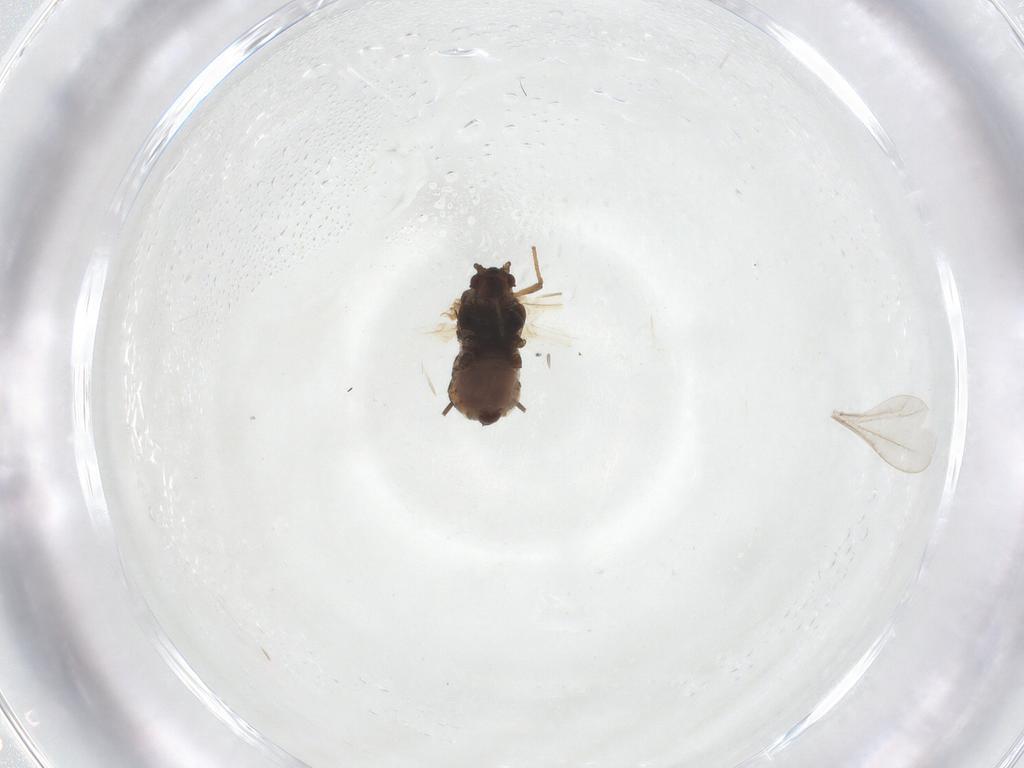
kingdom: Animalia
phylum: Arthropoda
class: Insecta
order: Hemiptera
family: Aphididae
